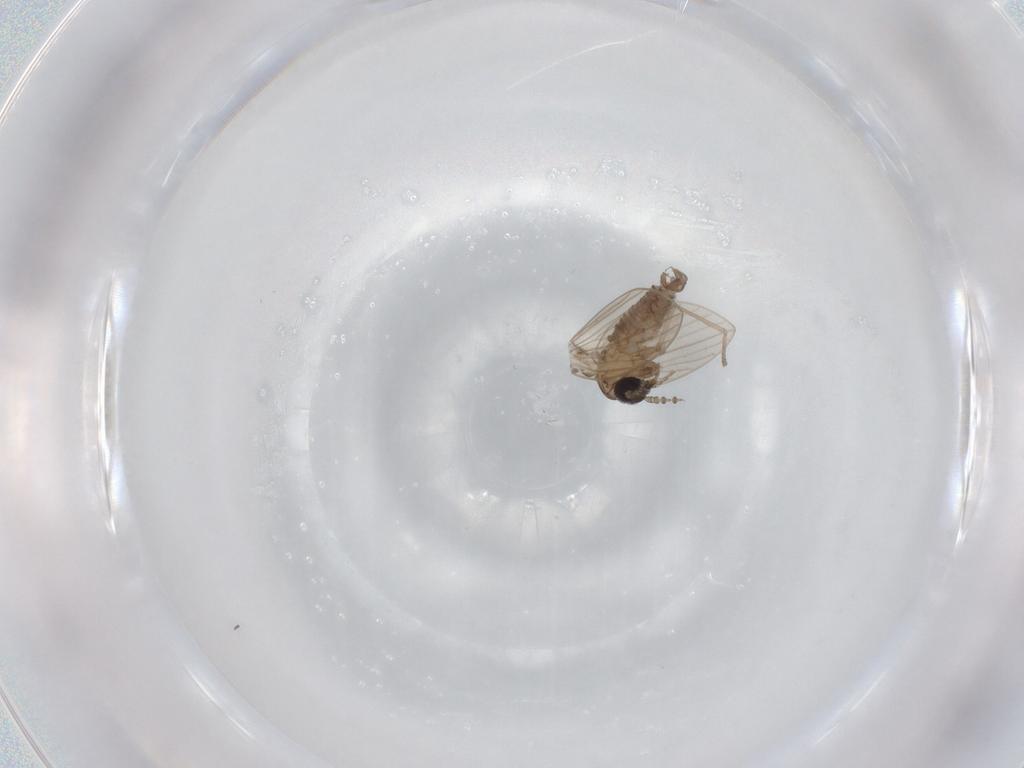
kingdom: Animalia
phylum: Arthropoda
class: Insecta
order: Diptera
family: Psychodidae
